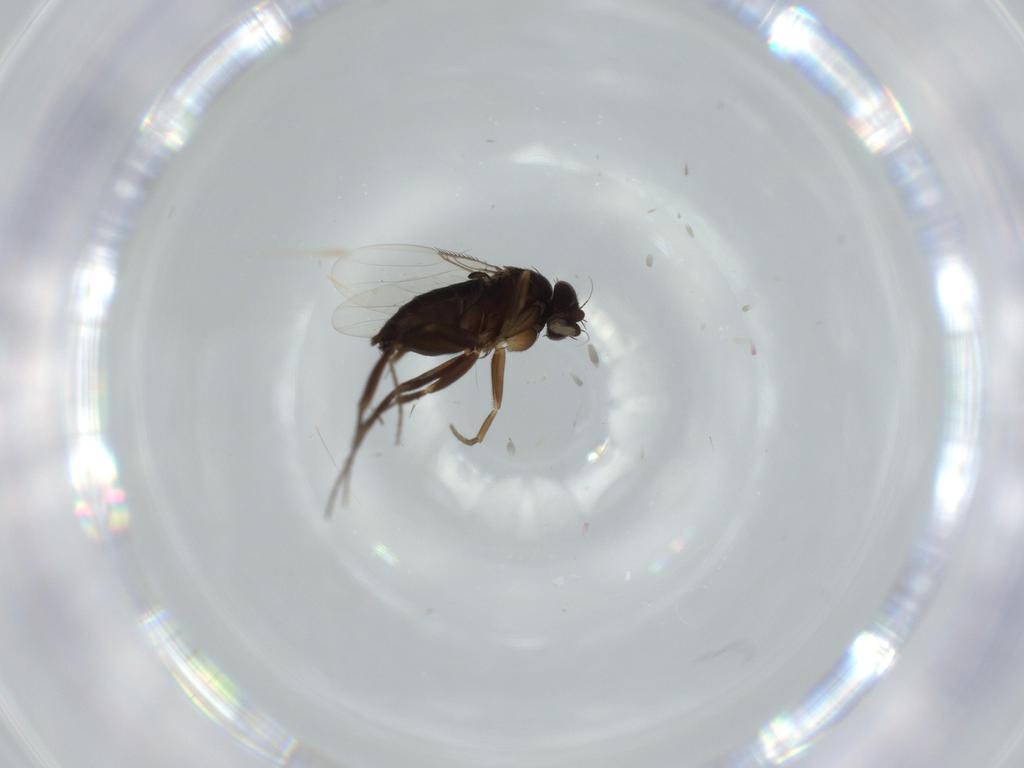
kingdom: Animalia
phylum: Arthropoda
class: Insecta
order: Diptera
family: Phoridae
